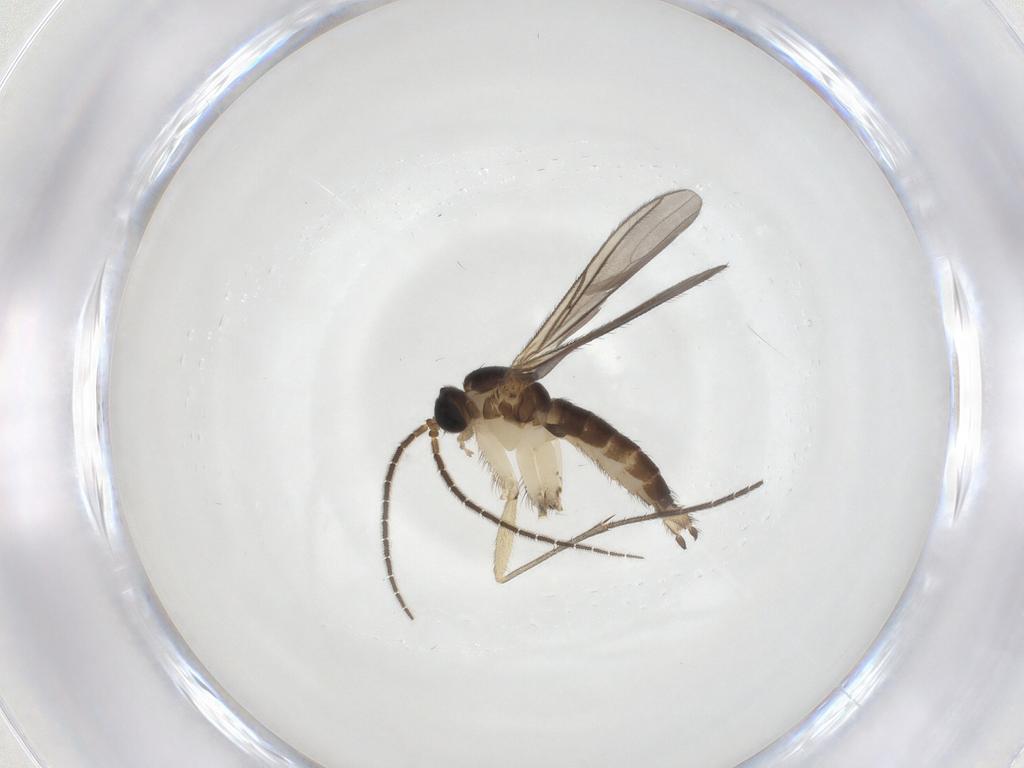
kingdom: Animalia
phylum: Arthropoda
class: Insecta
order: Diptera
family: Sciaridae
